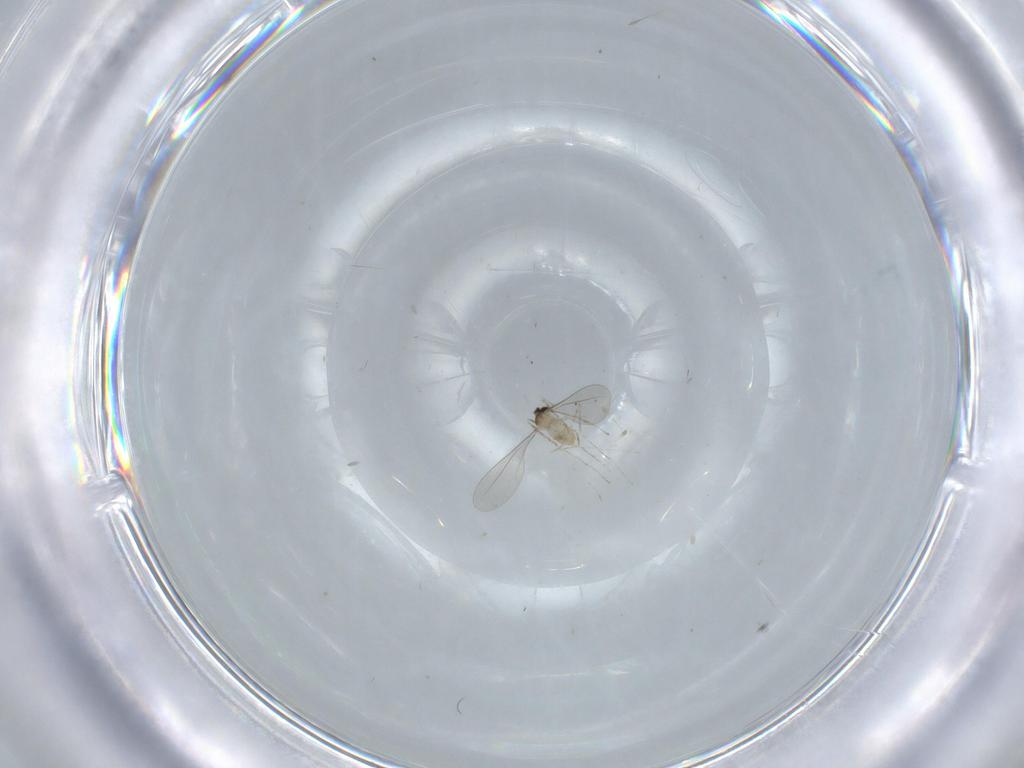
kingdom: Animalia
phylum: Arthropoda
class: Insecta
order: Diptera
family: Cecidomyiidae
